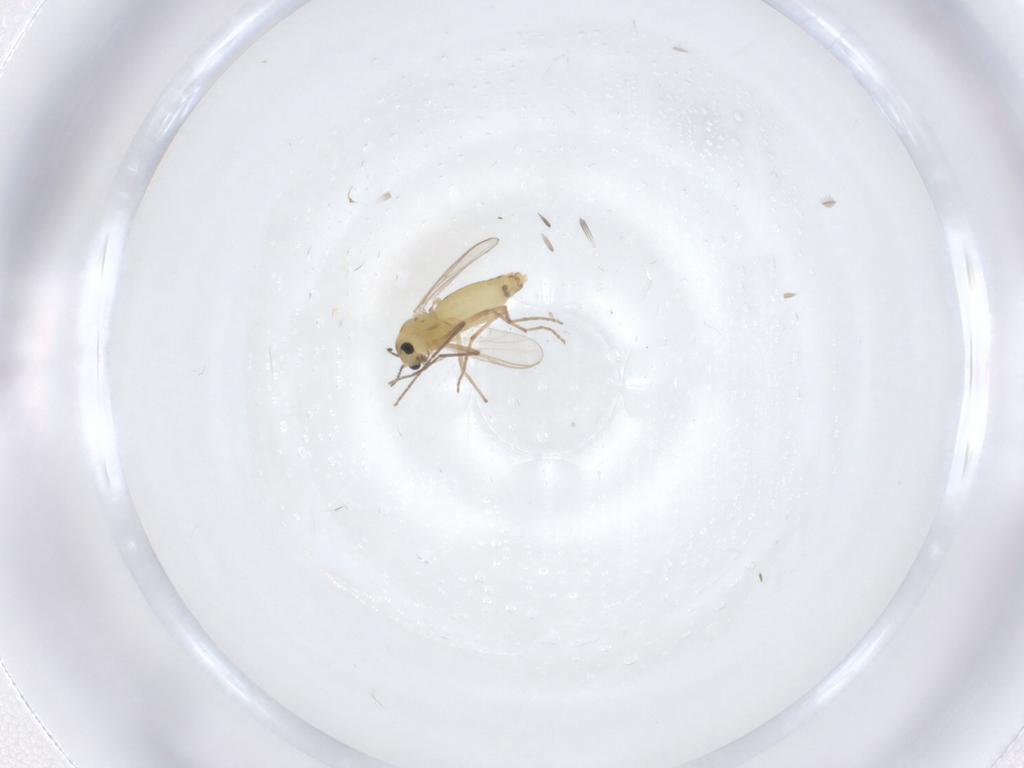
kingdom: Animalia
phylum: Arthropoda
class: Insecta
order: Diptera
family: Chironomidae
